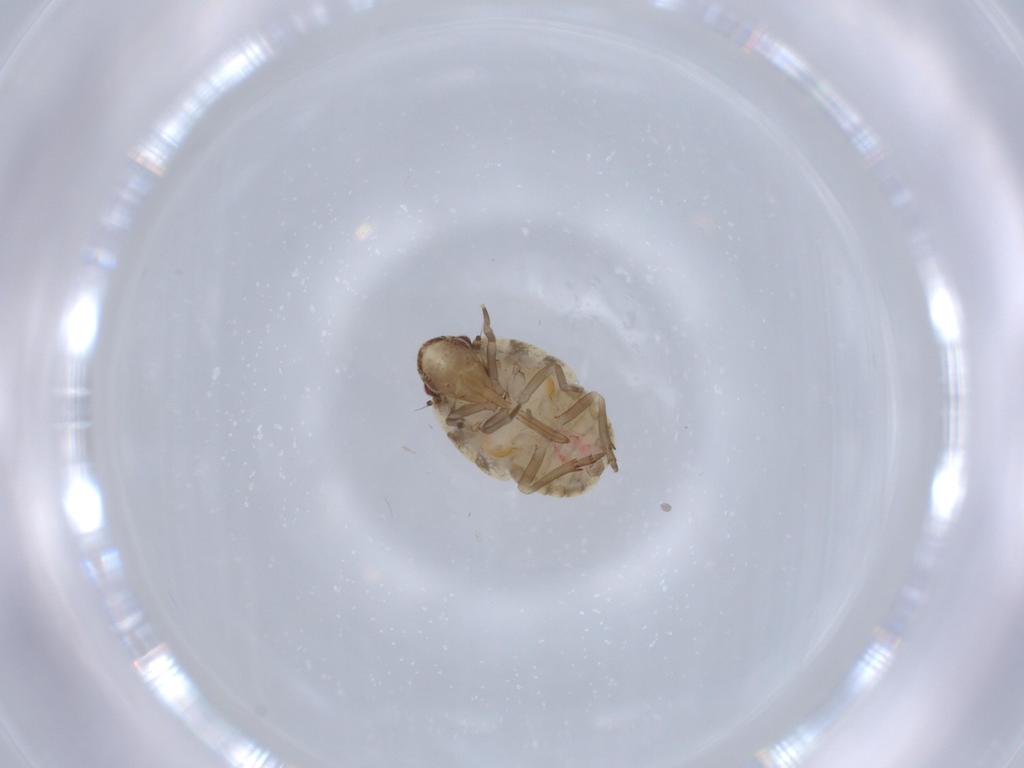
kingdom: Animalia
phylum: Arthropoda
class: Insecta
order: Hemiptera
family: Flatidae
